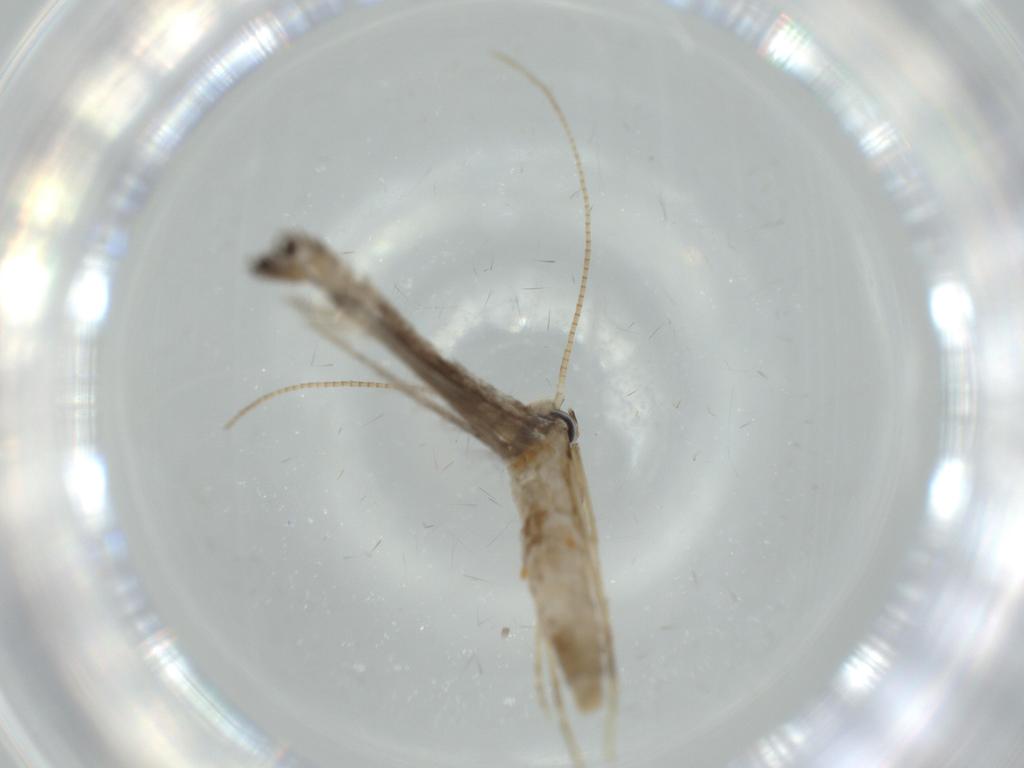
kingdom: Animalia
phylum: Arthropoda
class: Insecta
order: Lepidoptera
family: Gracillariidae
